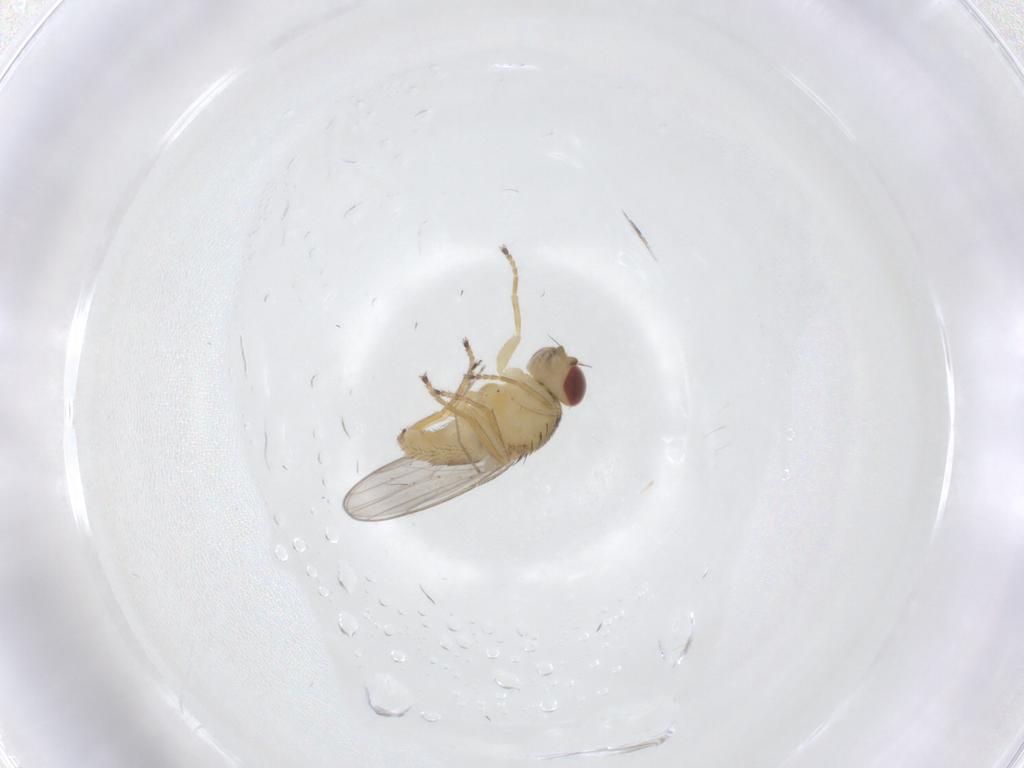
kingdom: Animalia
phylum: Arthropoda
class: Insecta
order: Diptera
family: Chloropidae
